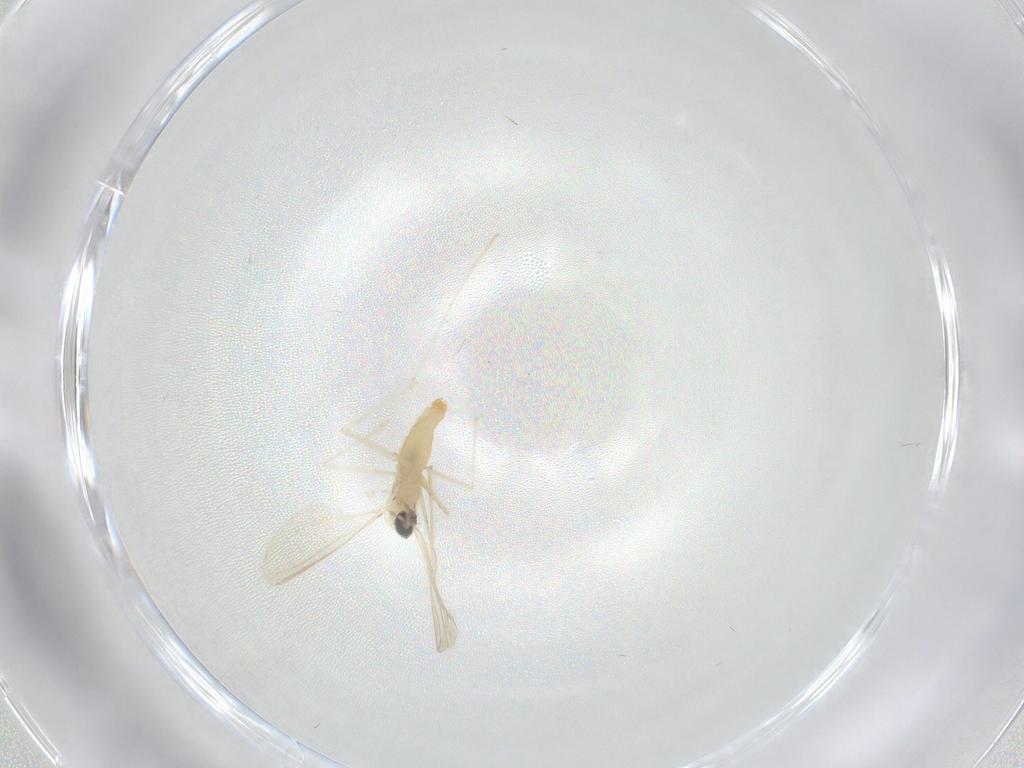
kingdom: Animalia
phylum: Arthropoda
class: Insecta
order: Diptera
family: Cecidomyiidae
